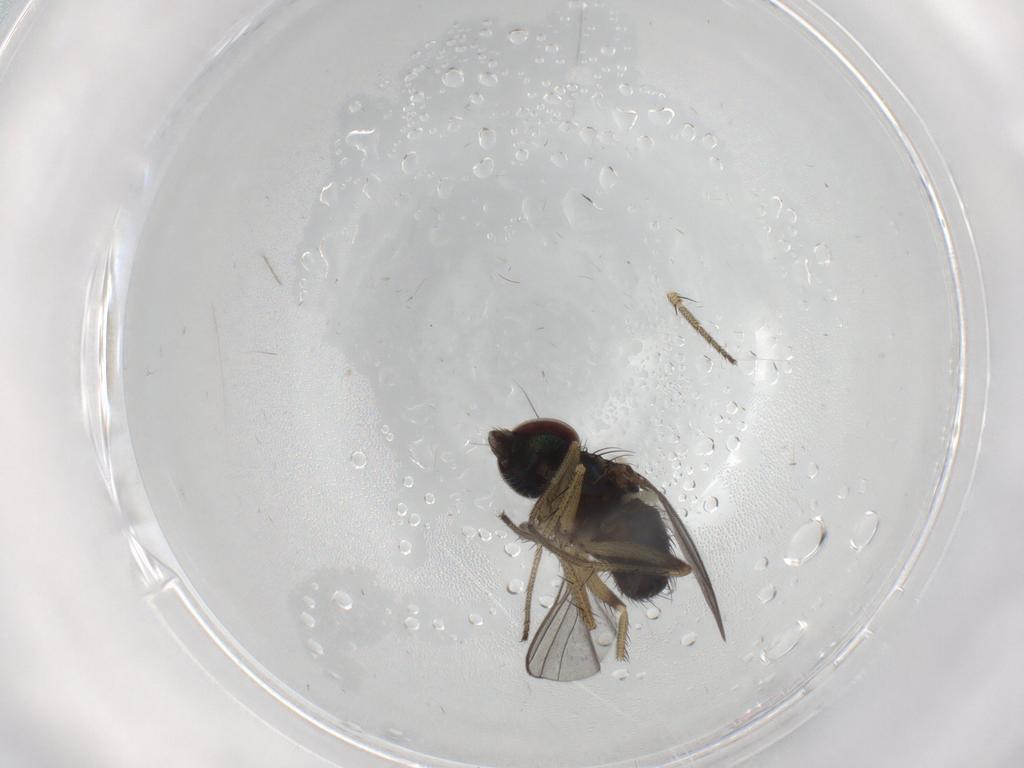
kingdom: Animalia
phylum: Arthropoda
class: Insecta
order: Diptera
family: Dolichopodidae
